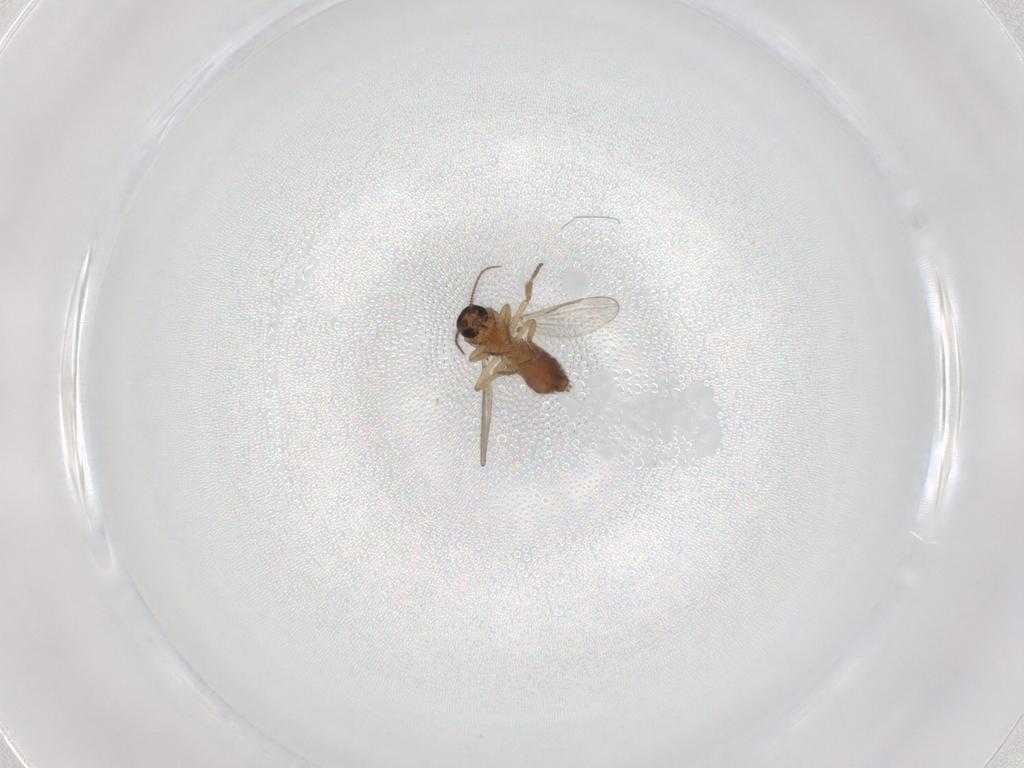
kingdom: Animalia
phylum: Arthropoda
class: Insecta
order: Diptera
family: Ceratopogonidae
